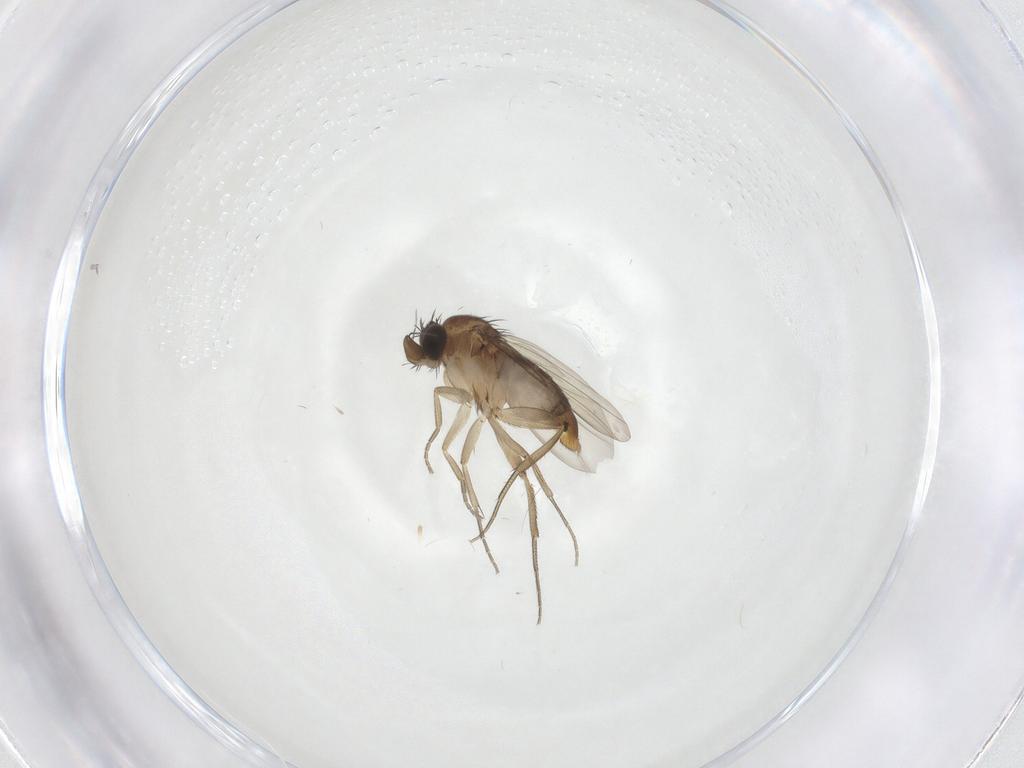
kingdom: Animalia
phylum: Arthropoda
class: Insecta
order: Diptera
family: Phoridae
